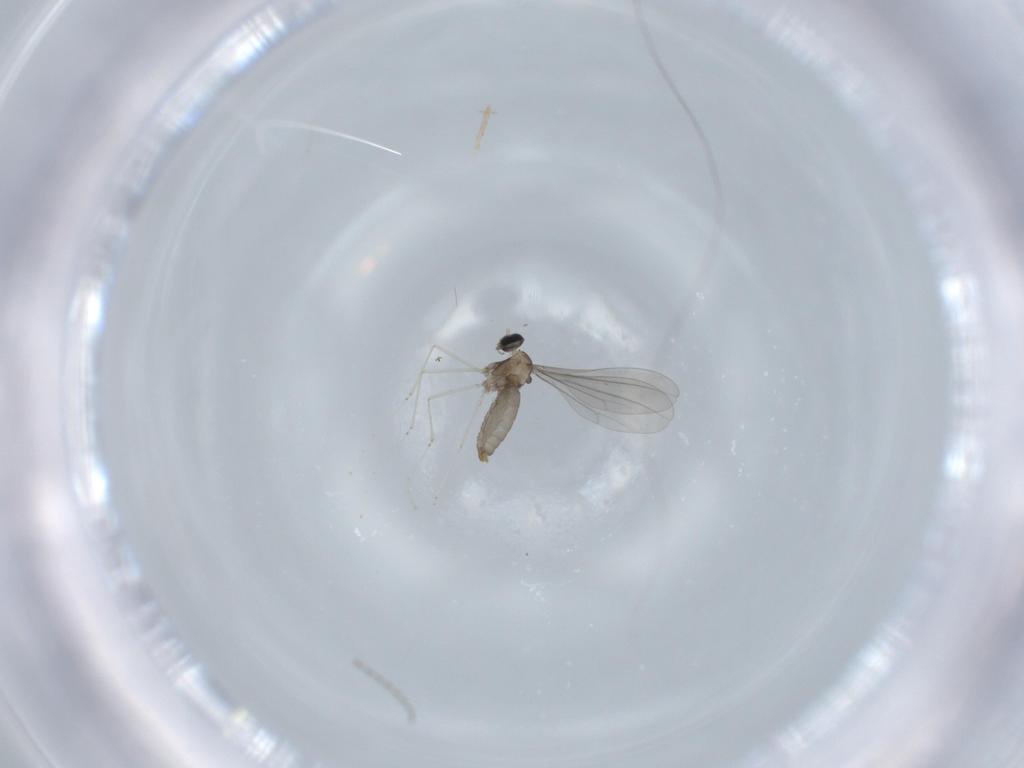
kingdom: Animalia
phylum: Arthropoda
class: Insecta
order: Diptera
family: Cecidomyiidae
